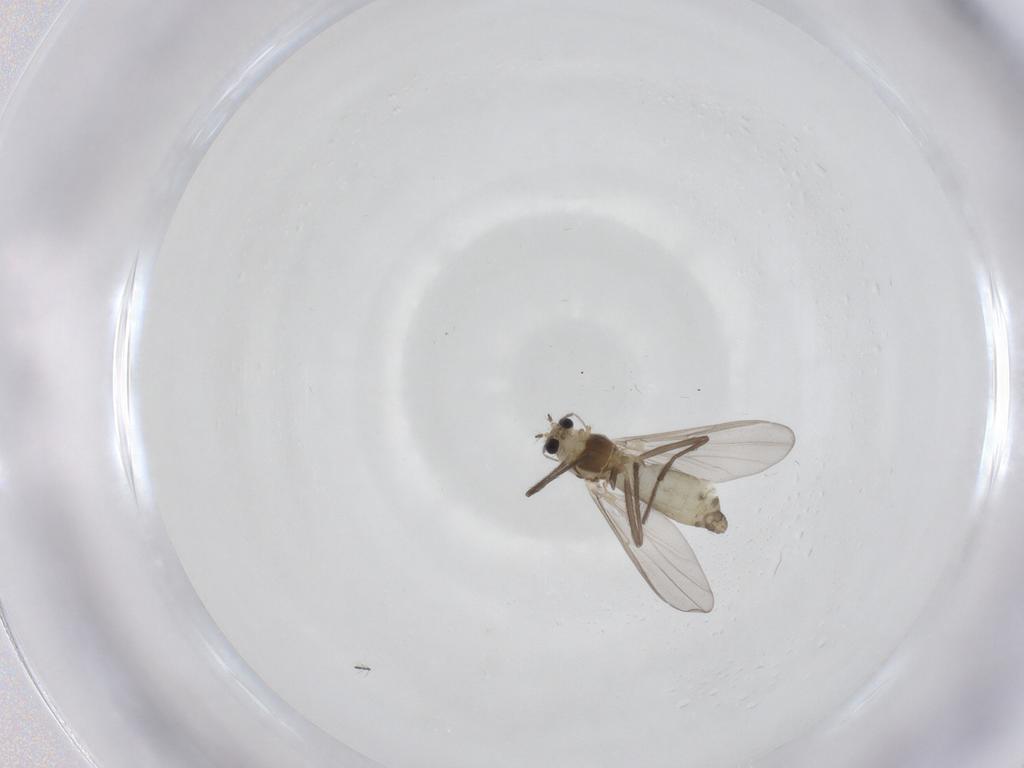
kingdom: Animalia
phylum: Arthropoda
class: Insecta
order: Diptera
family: Chironomidae
